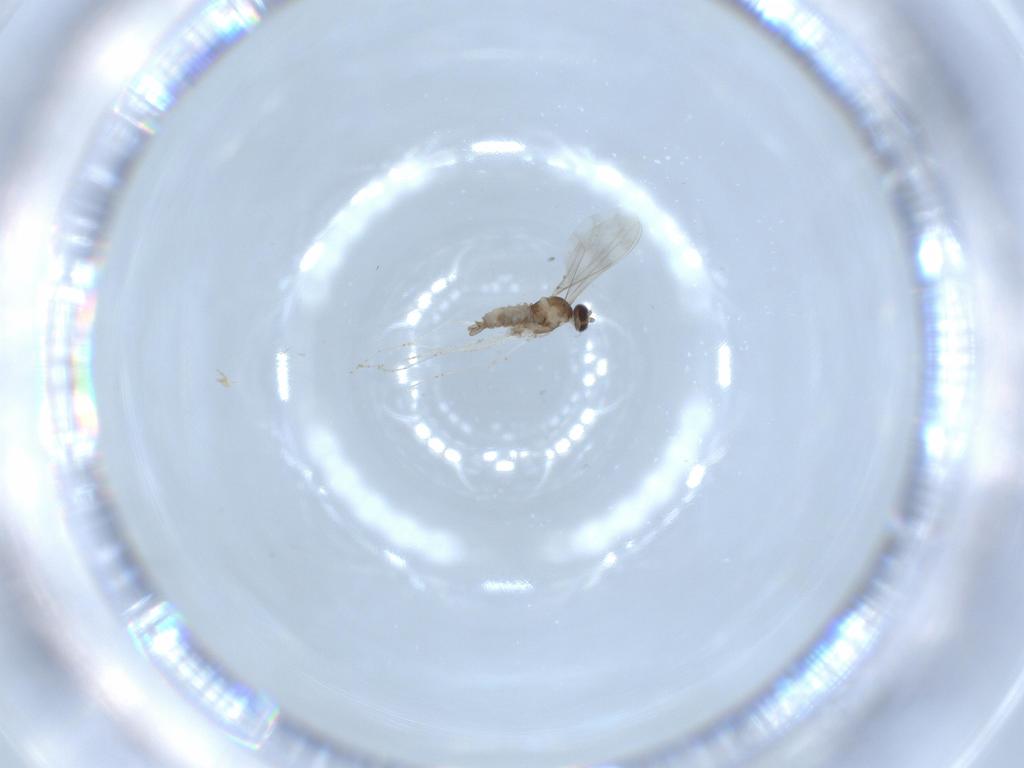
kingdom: Animalia
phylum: Arthropoda
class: Insecta
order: Diptera
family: Cecidomyiidae
